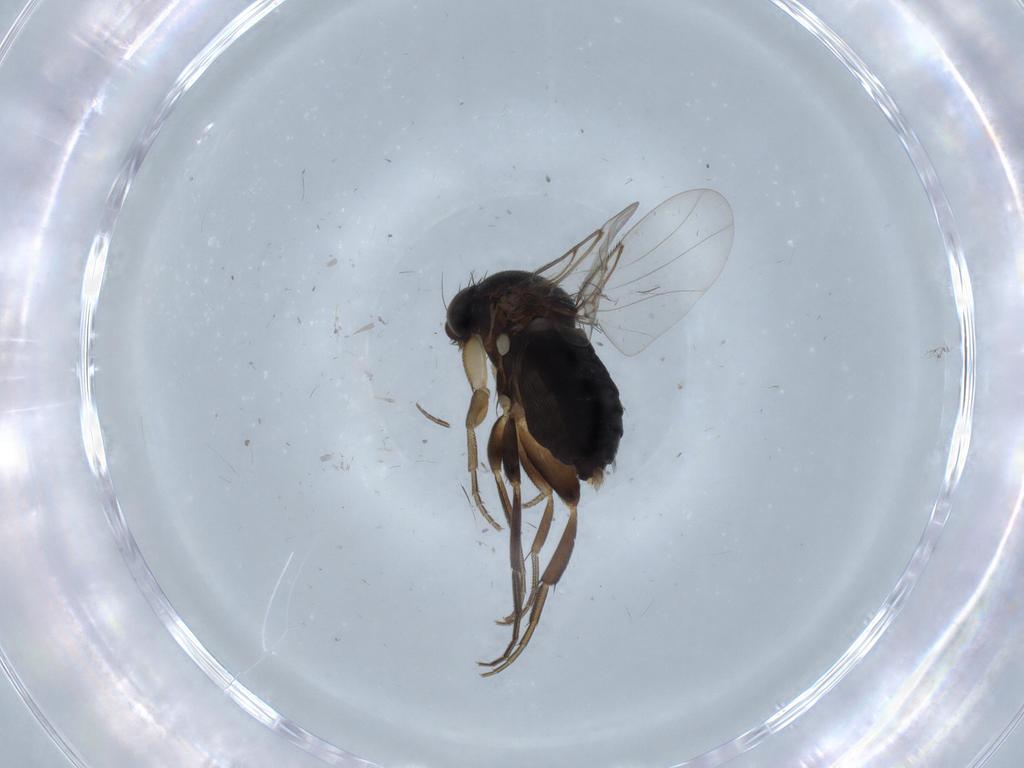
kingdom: Animalia
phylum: Arthropoda
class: Insecta
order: Diptera
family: Phoridae
